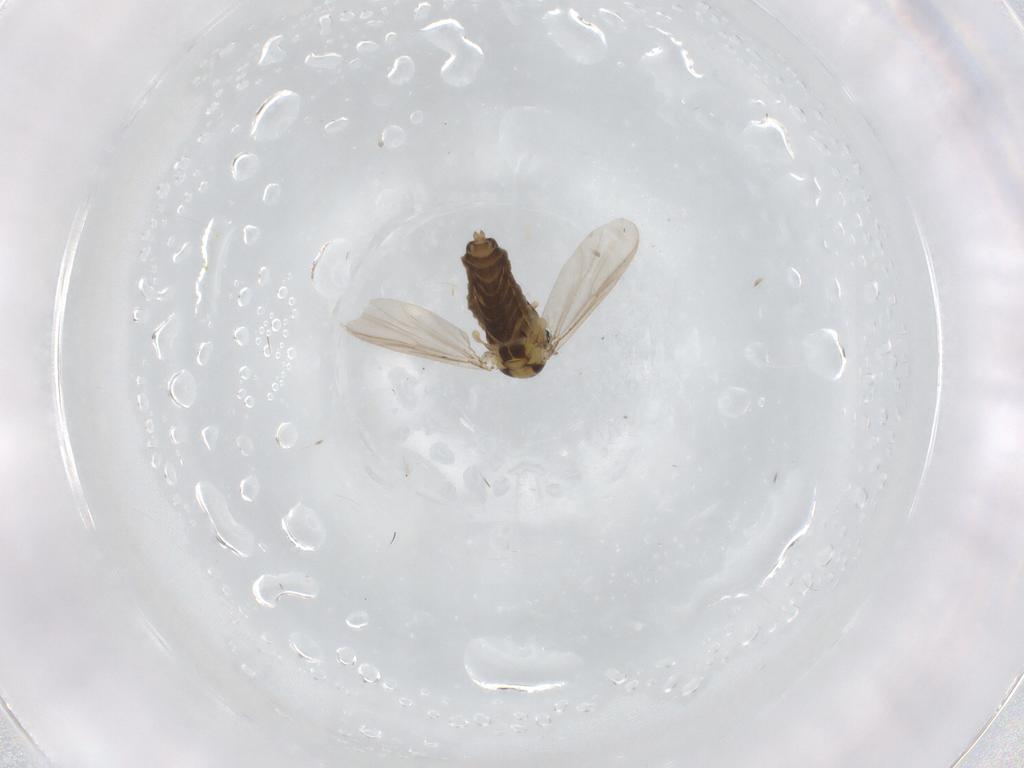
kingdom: Animalia
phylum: Arthropoda
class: Insecta
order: Diptera
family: Chironomidae
